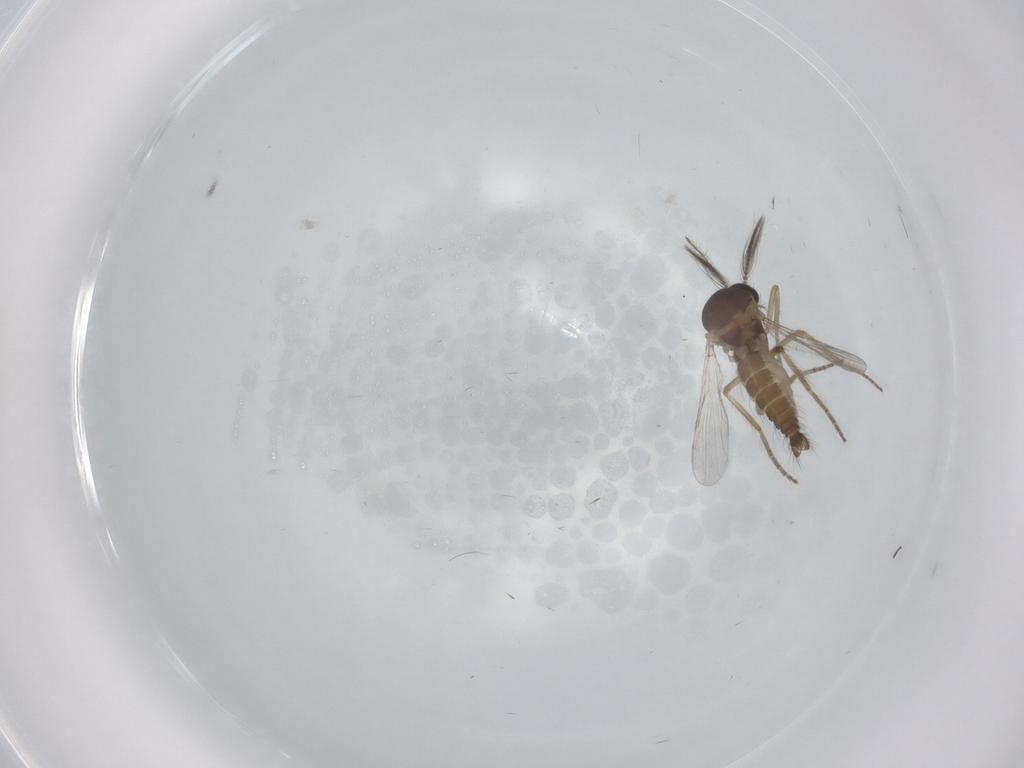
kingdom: Animalia
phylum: Arthropoda
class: Insecta
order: Diptera
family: Sciaridae
